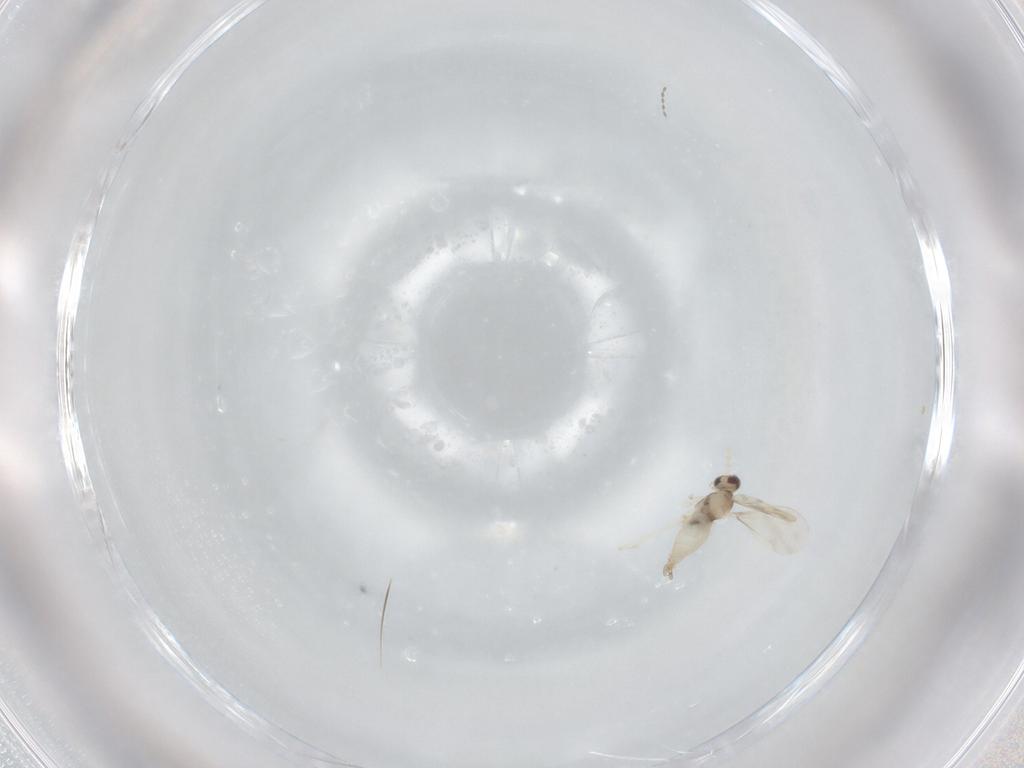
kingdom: Animalia
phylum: Arthropoda
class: Insecta
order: Diptera
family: Cecidomyiidae
